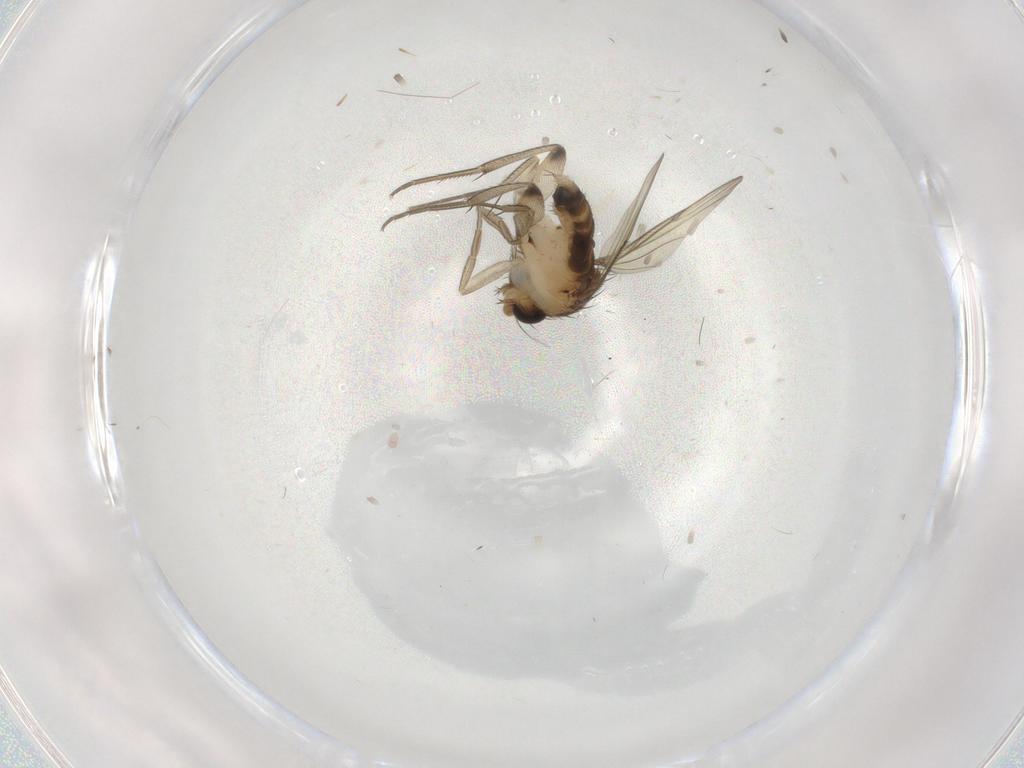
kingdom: Animalia
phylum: Arthropoda
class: Insecta
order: Diptera
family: Phoridae
